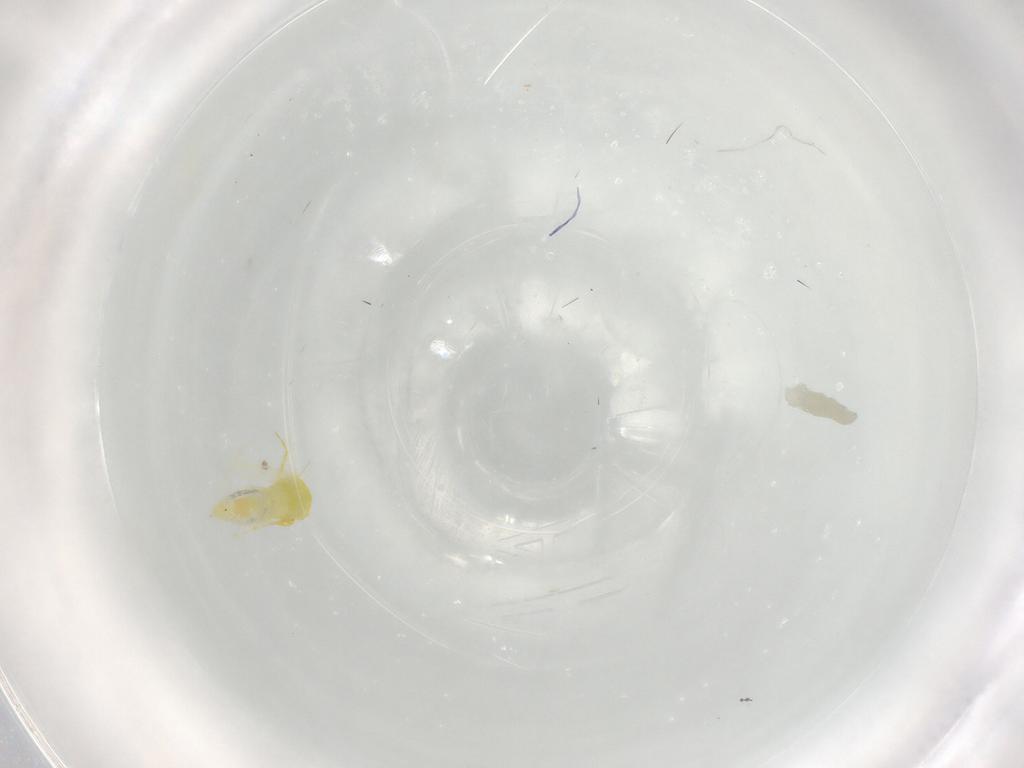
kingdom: Animalia
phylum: Arthropoda
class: Insecta
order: Hemiptera
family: Aleyrodidae
